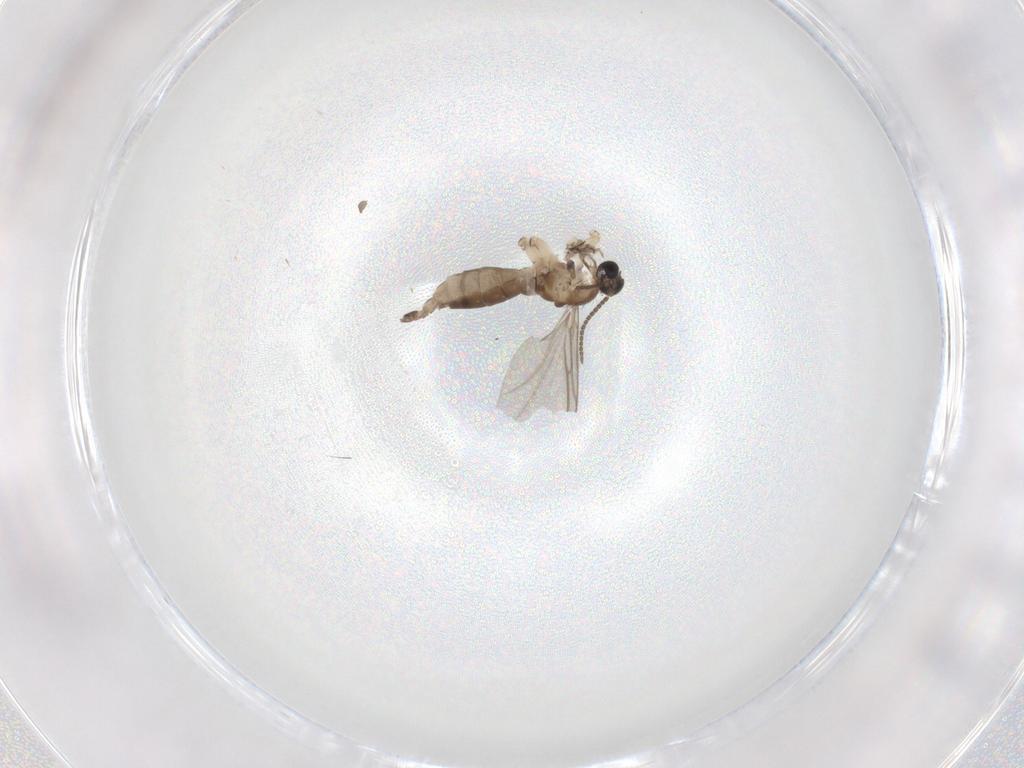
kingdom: Animalia
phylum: Arthropoda
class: Insecta
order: Diptera
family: Sciaridae
